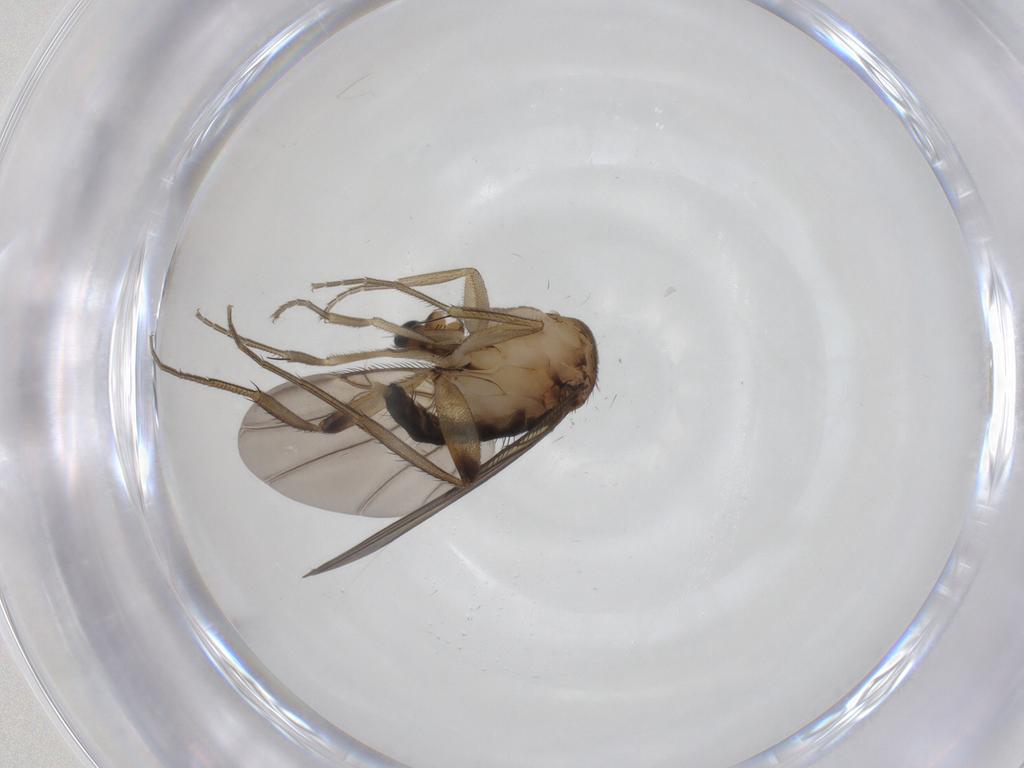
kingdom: Animalia
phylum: Arthropoda
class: Insecta
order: Diptera
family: Phoridae
